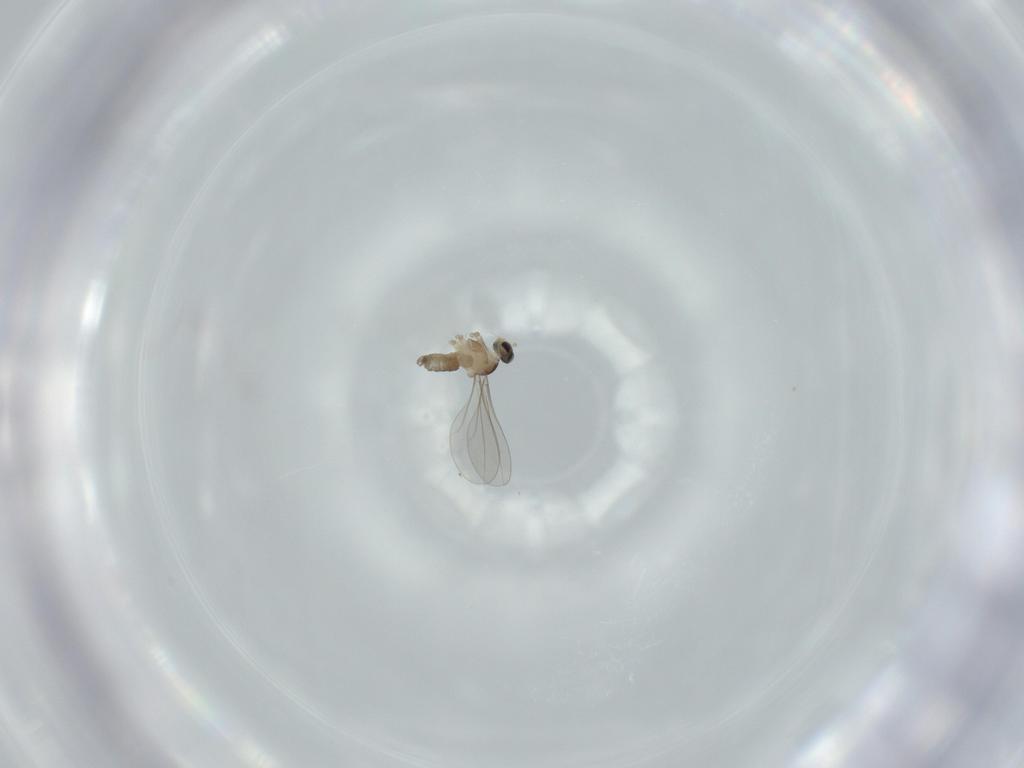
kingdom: Animalia
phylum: Arthropoda
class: Insecta
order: Diptera
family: Cecidomyiidae
